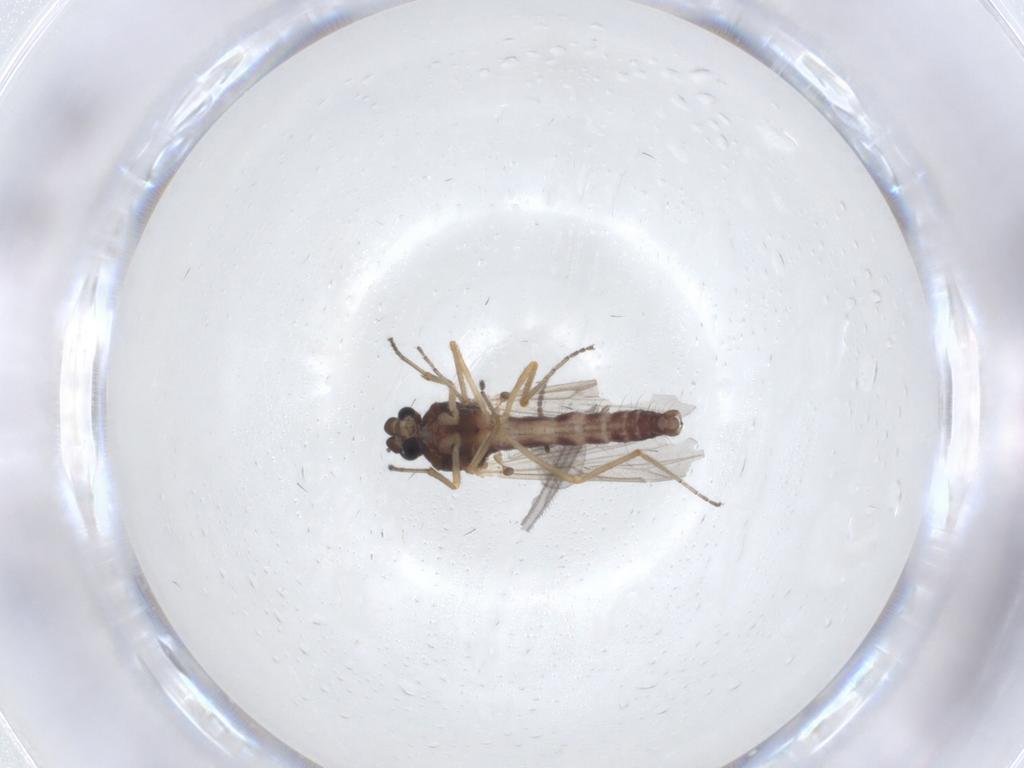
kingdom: Animalia
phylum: Arthropoda
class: Insecta
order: Diptera
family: Ceratopogonidae
